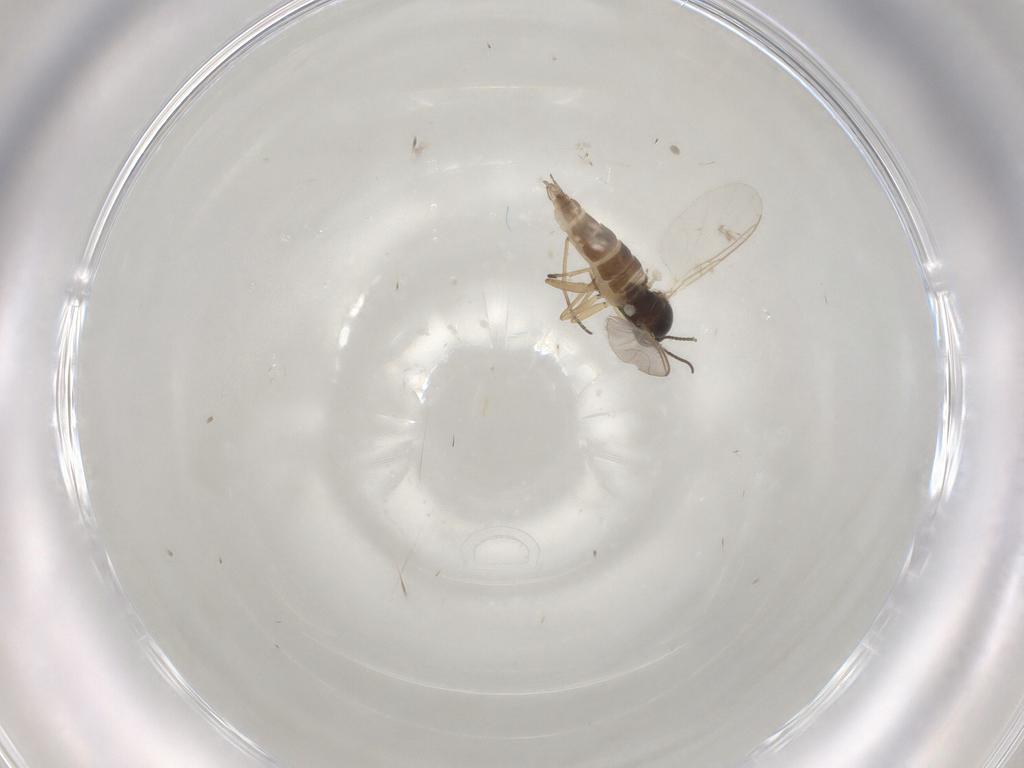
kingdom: Animalia
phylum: Arthropoda
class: Insecta
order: Diptera
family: Sciaridae
